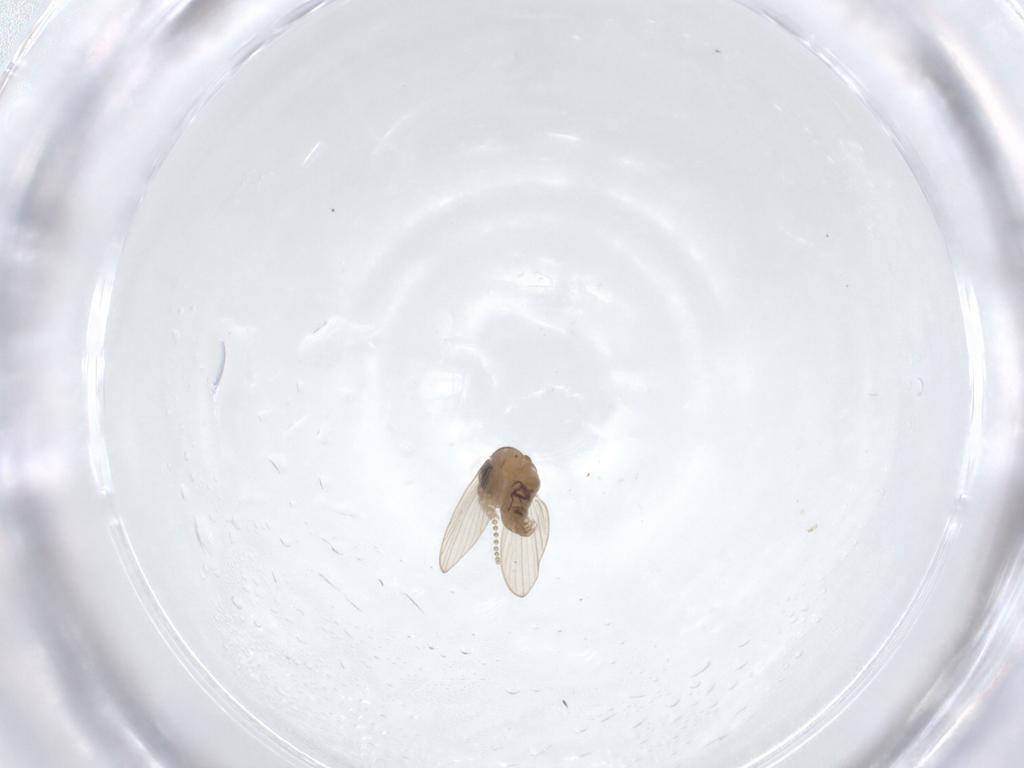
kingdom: Animalia
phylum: Arthropoda
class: Insecta
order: Diptera
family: Psychodidae
